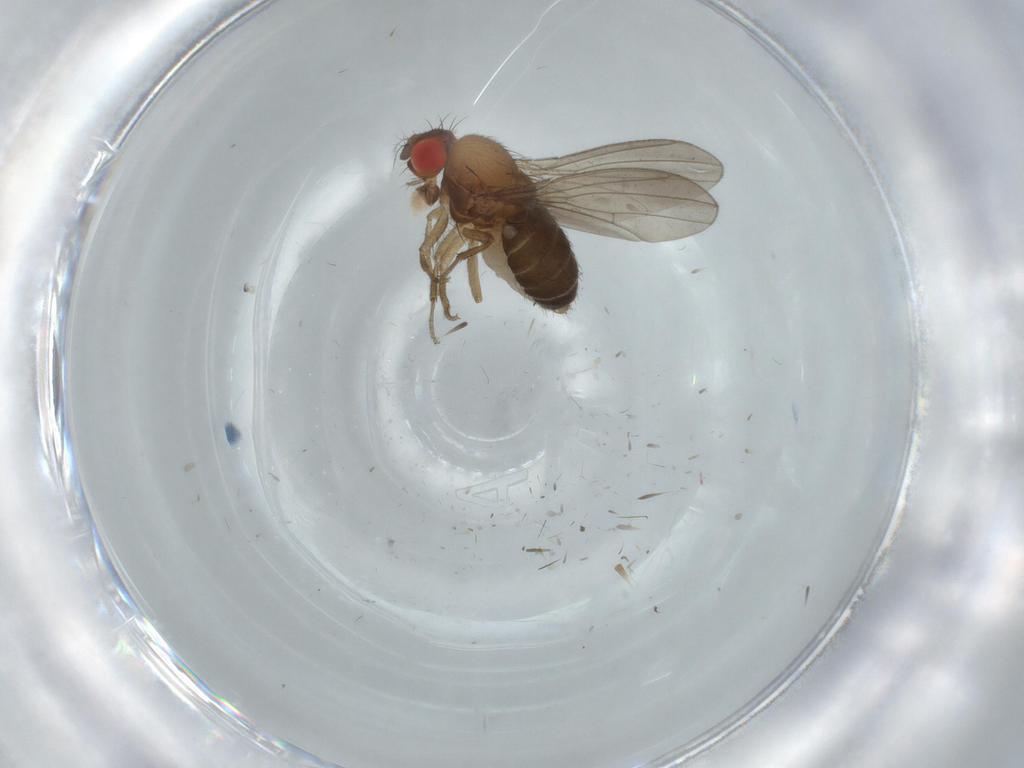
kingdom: Animalia
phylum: Arthropoda
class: Insecta
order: Diptera
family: Drosophilidae
